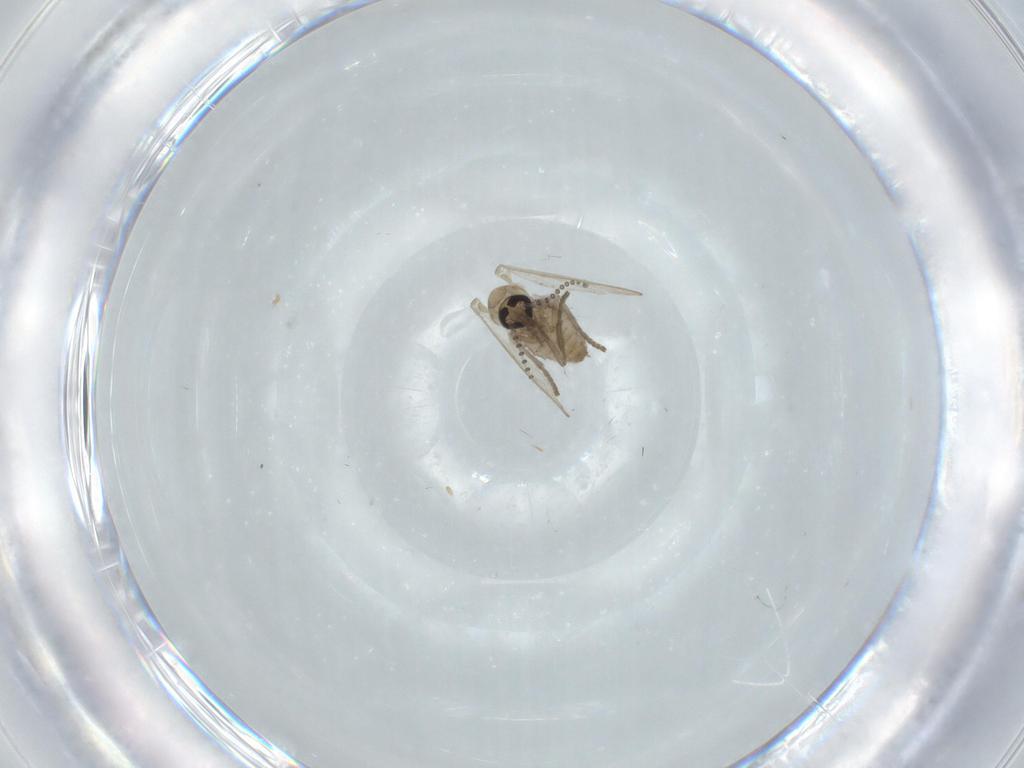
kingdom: Animalia
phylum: Arthropoda
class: Insecta
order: Diptera
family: Psychodidae
